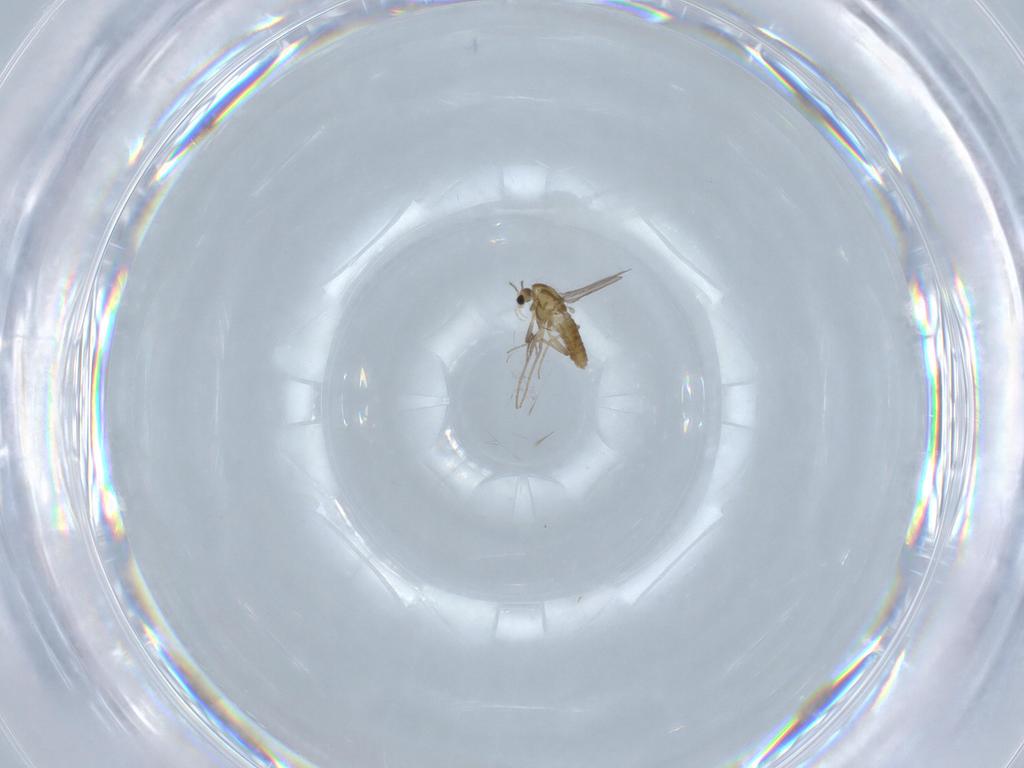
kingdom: Animalia
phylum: Arthropoda
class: Insecta
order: Diptera
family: Chironomidae
